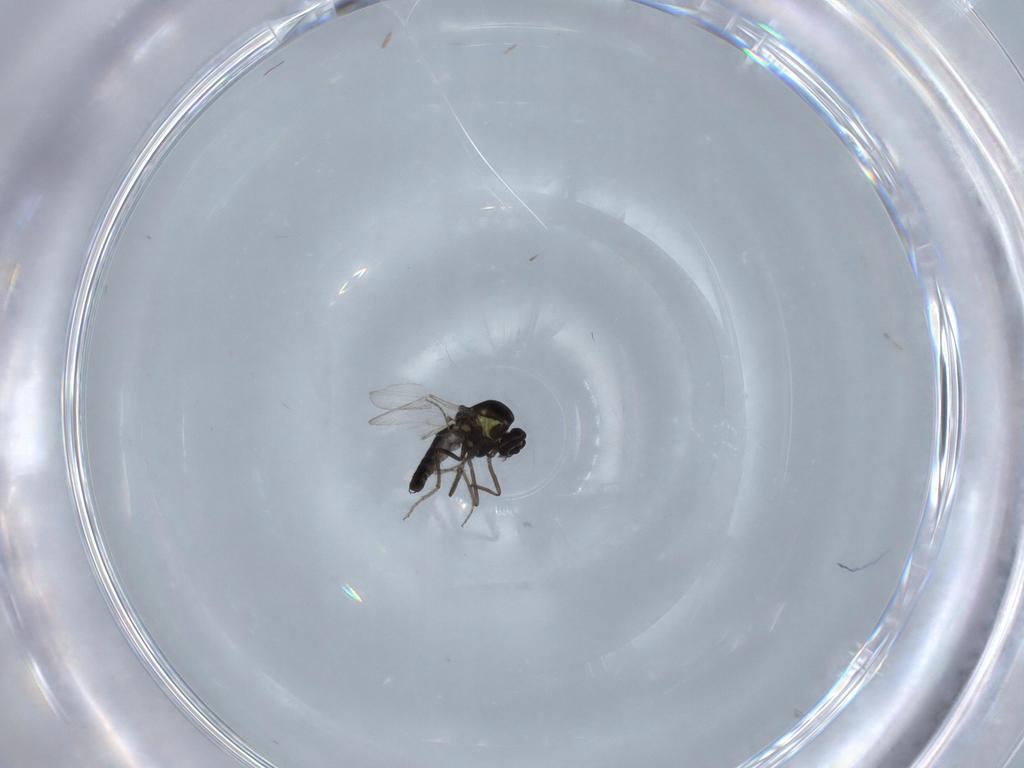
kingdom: Animalia
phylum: Arthropoda
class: Insecta
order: Diptera
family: Ceratopogonidae
